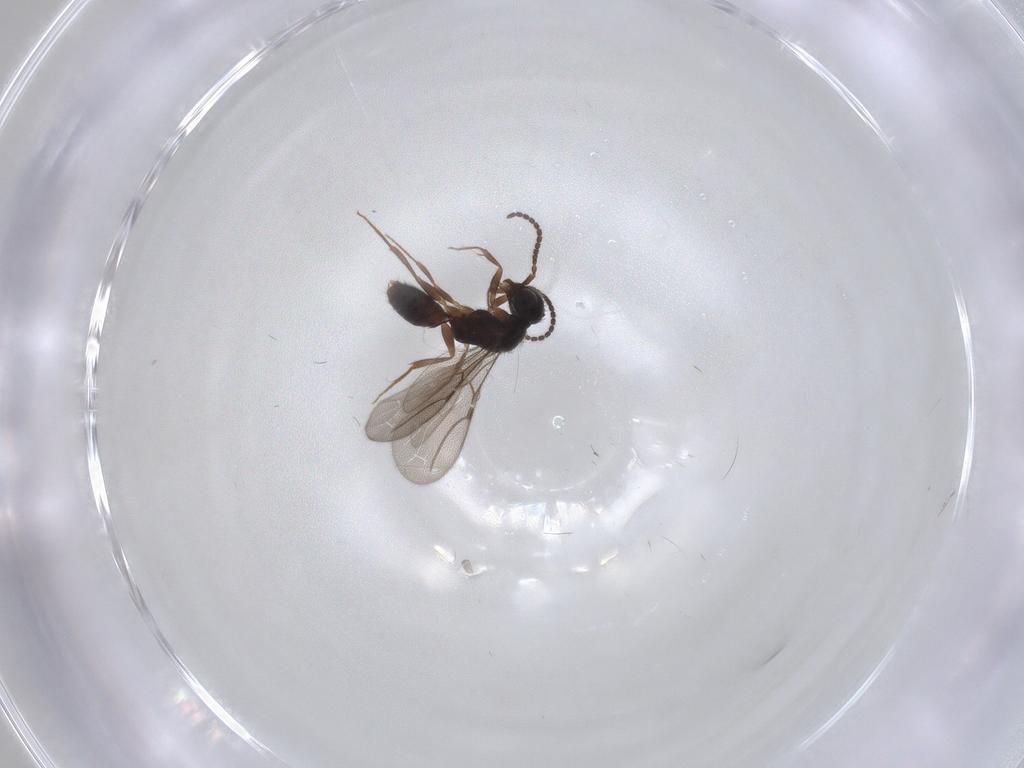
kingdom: Animalia
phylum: Arthropoda
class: Insecta
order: Hymenoptera
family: Bethylidae
